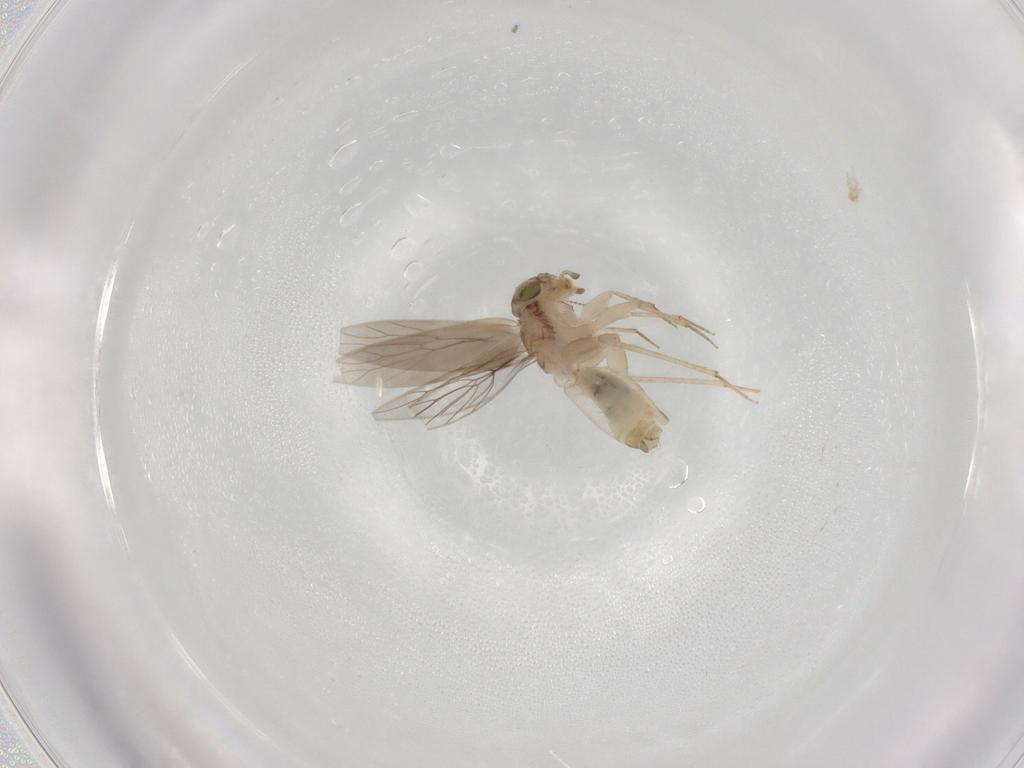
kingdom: Animalia
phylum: Arthropoda
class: Insecta
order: Psocodea
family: Lepidopsocidae
